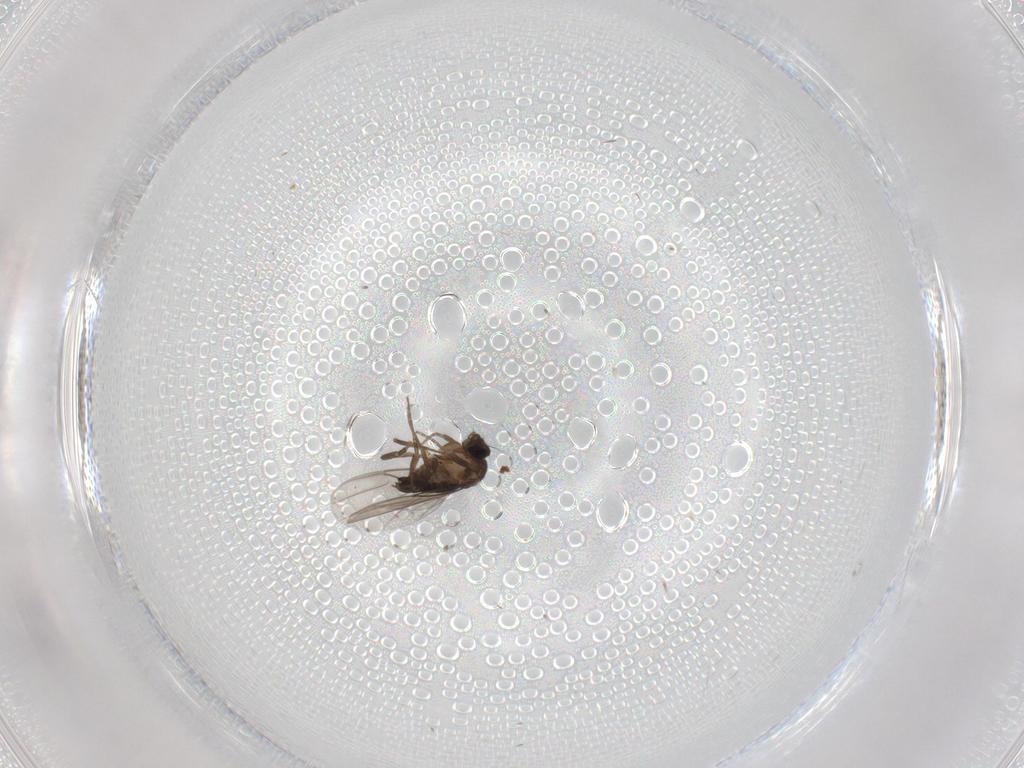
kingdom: Animalia
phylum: Arthropoda
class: Insecta
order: Diptera
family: Phoridae
